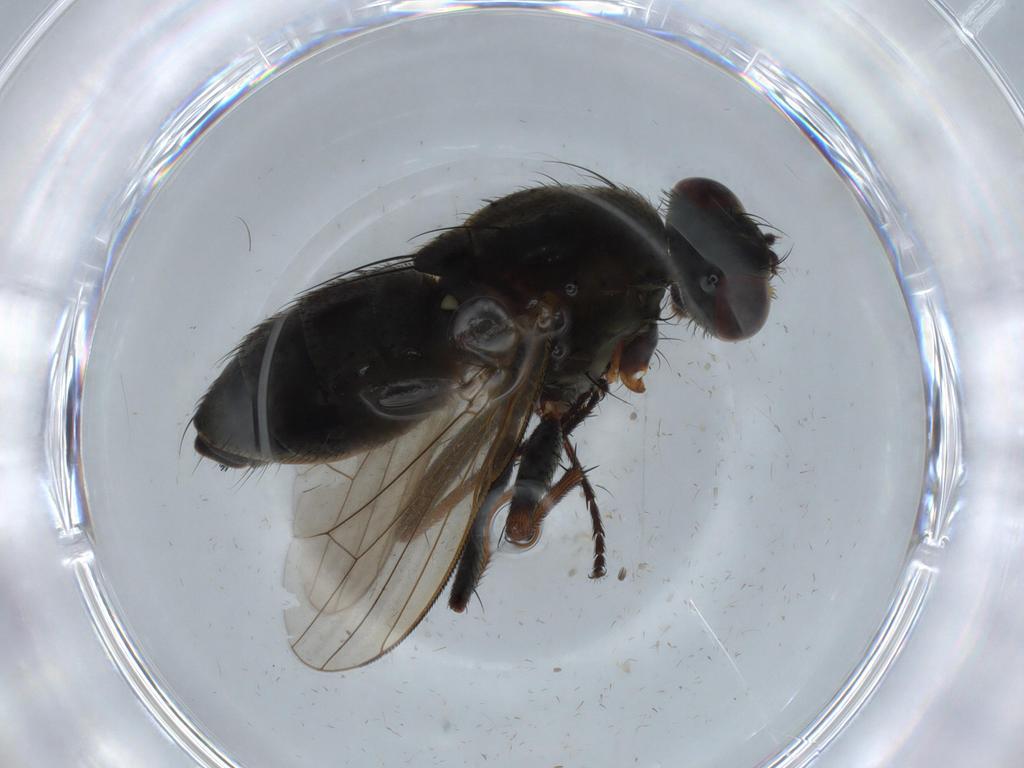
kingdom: Animalia
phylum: Arthropoda
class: Insecta
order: Diptera
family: Muscidae
